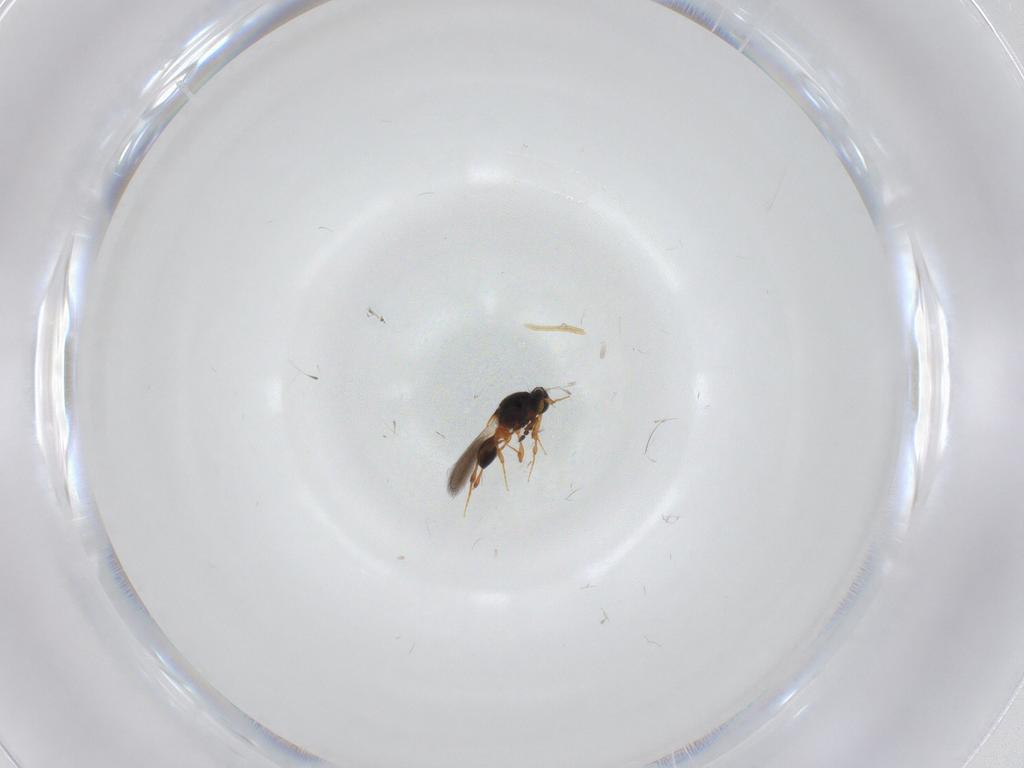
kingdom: Animalia
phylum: Arthropoda
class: Insecta
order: Hymenoptera
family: Platygastridae
